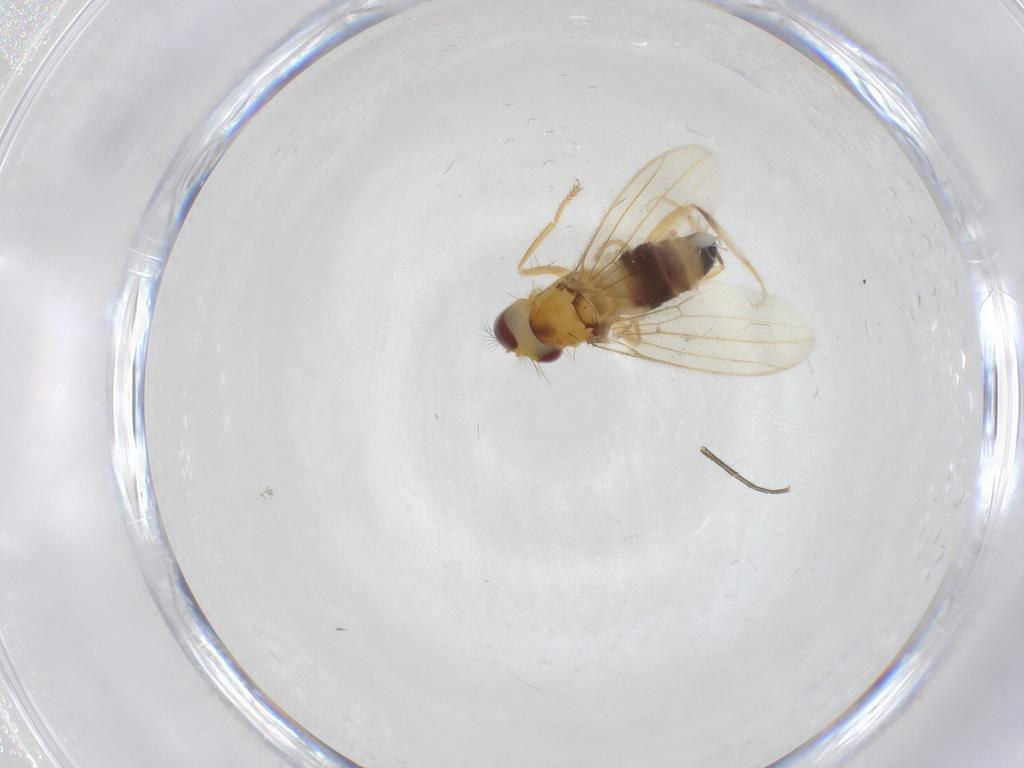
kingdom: Animalia
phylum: Arthropoda
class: Insecta
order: Diptera
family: Periscelididae
